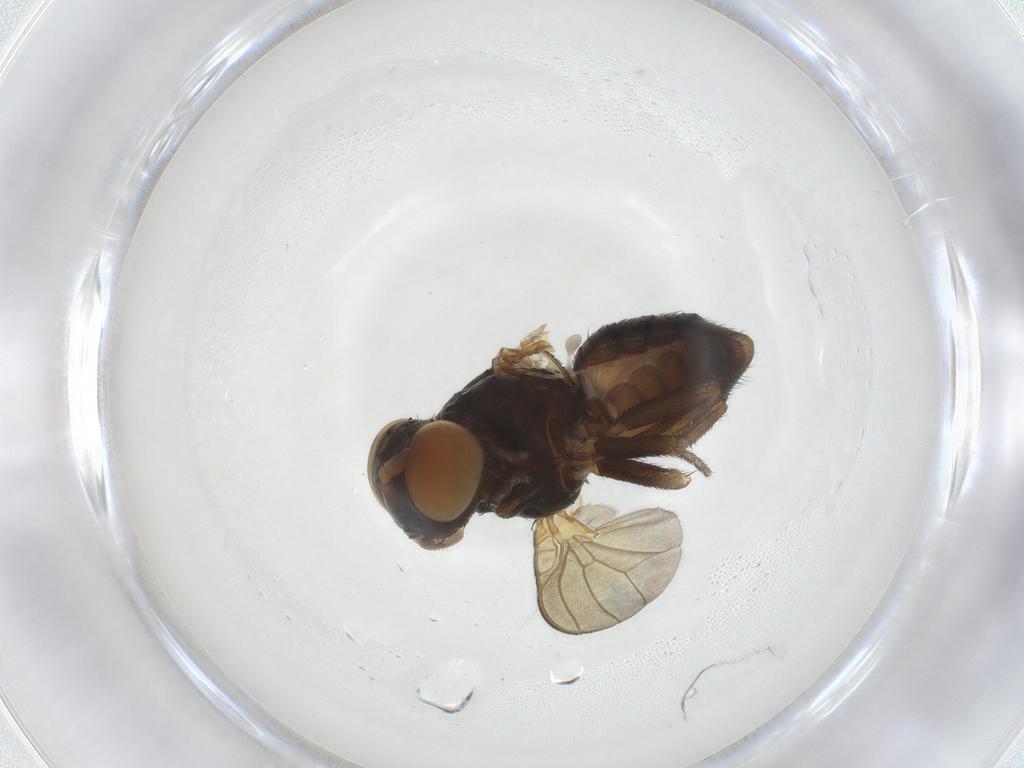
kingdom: Animalia
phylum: Arthropoda
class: Insecta
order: Diptera
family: Lauxaniidae
